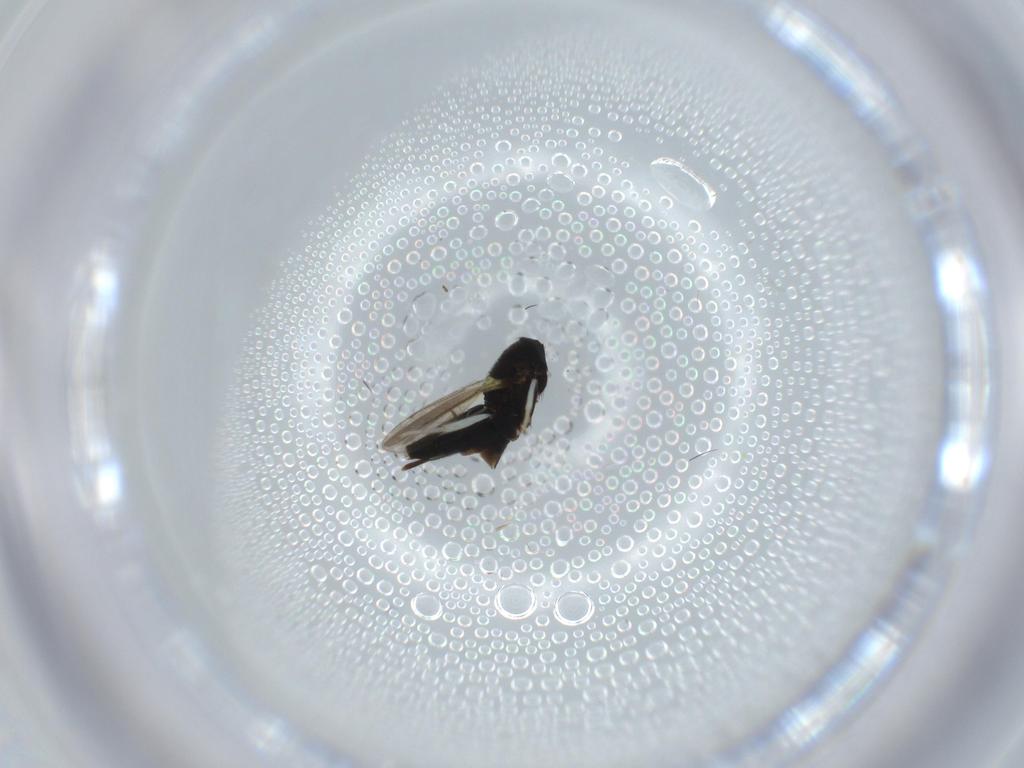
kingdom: Animalia
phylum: Arthropoda
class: Insecta
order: Hymenoptera
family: Aphelinidae
